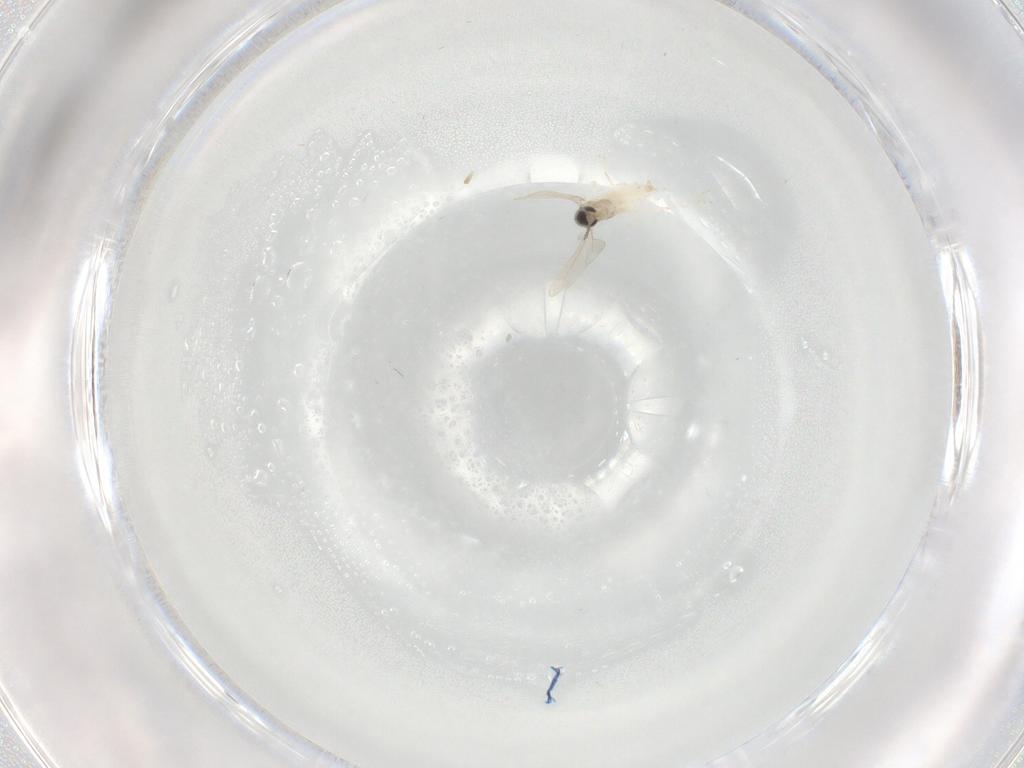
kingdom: Animalia
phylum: Arthropoda
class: Insecta
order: Diptera
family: Cecidomyiidae
